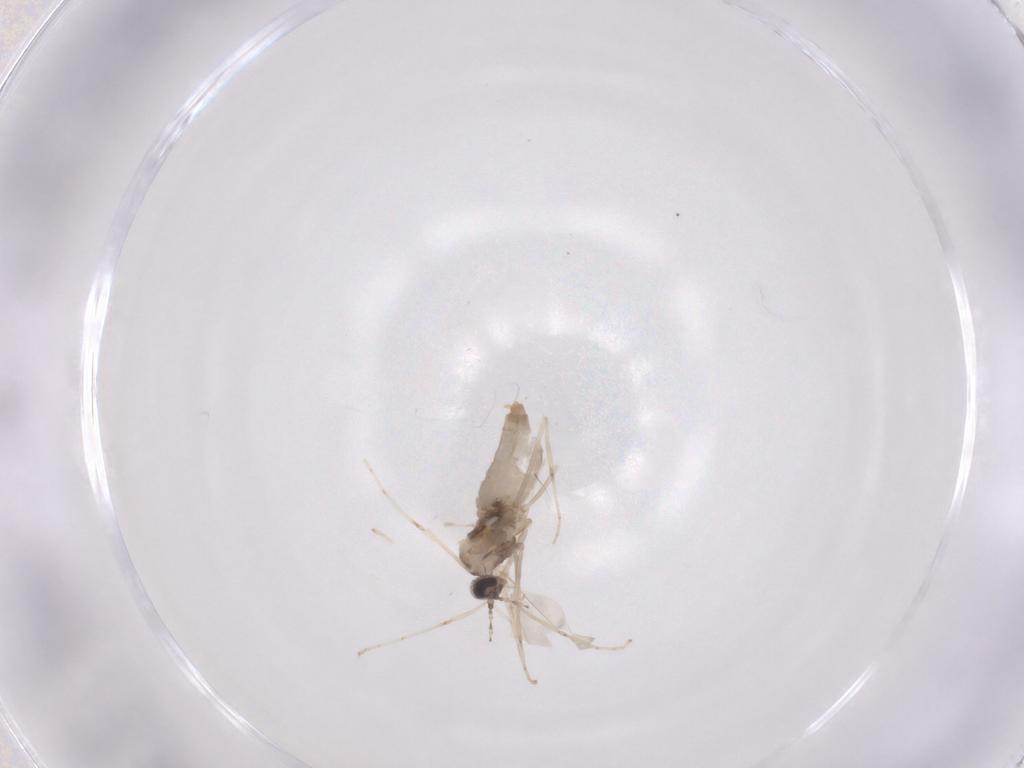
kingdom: Animalia
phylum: Arthropoda
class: Insecta
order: Diptera
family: Cecidomyiidae
